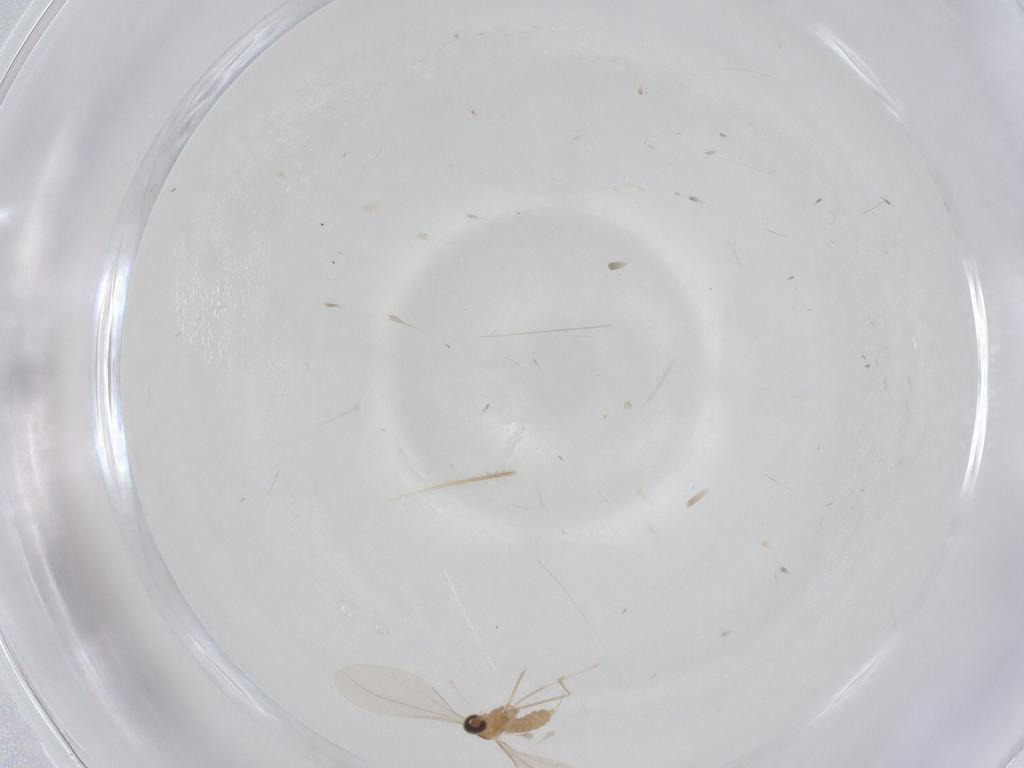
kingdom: Animalia
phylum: Arthropoda
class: Insecta
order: Diptera
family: Cecidomyiidae
